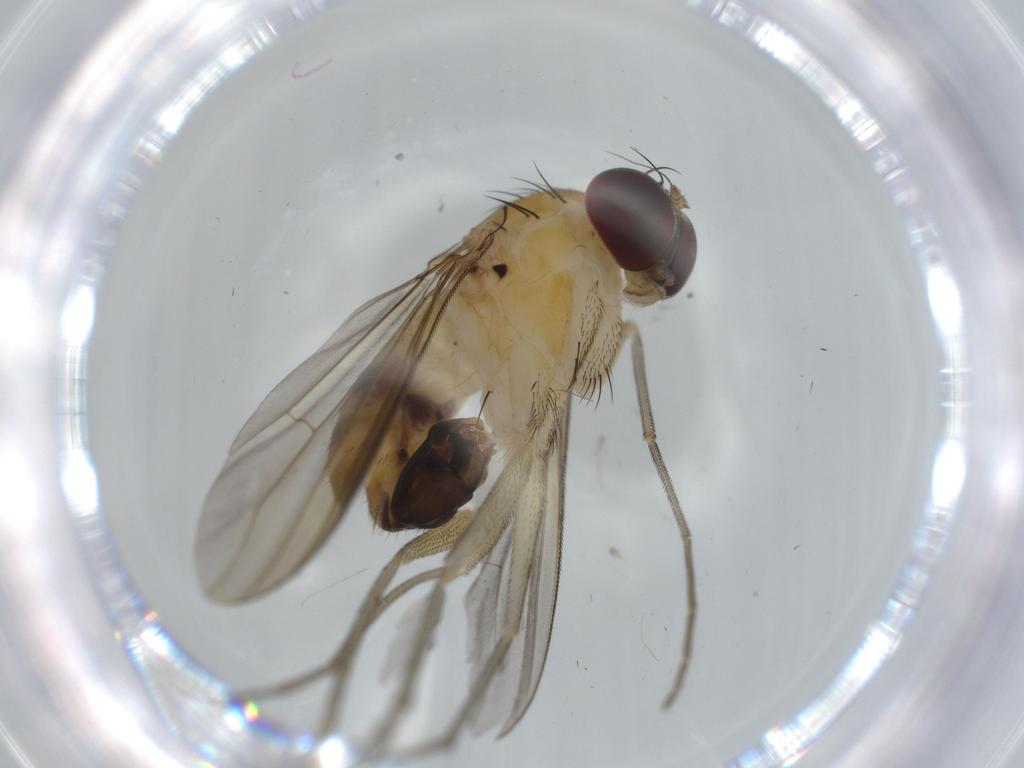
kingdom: Animalia
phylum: Arthropoda
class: Insecta
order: Diptera
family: Dolichopodidae
